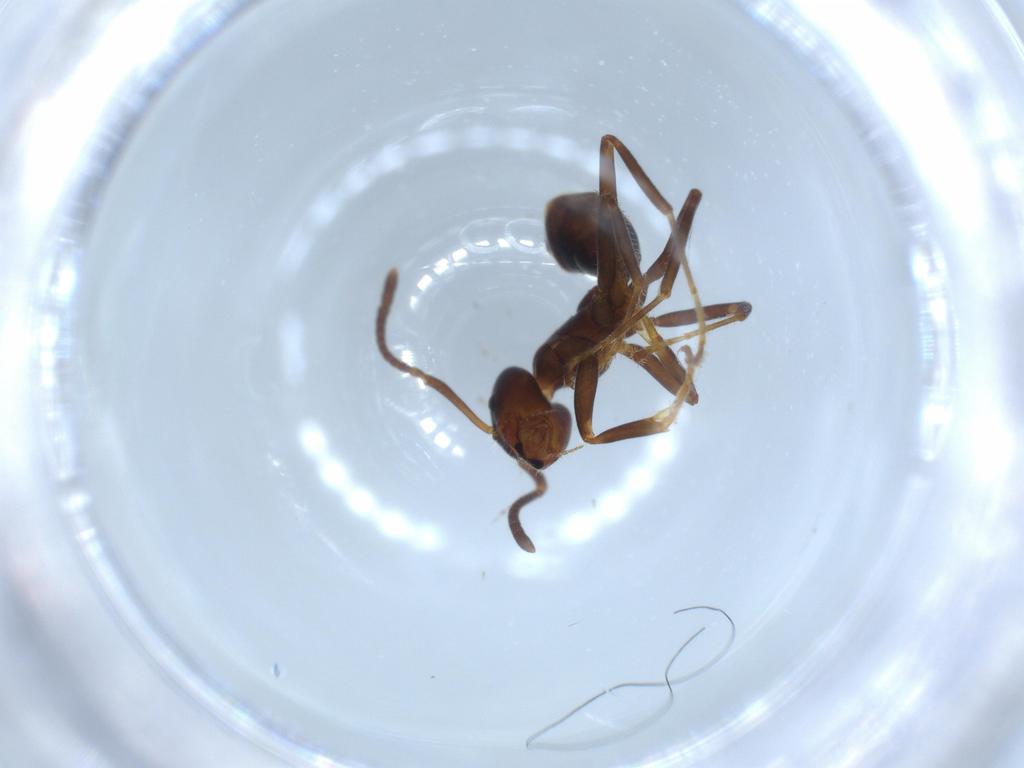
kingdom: Animalia
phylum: Arthropoda
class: Insecta
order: Hymenoptera
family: Formicidae
